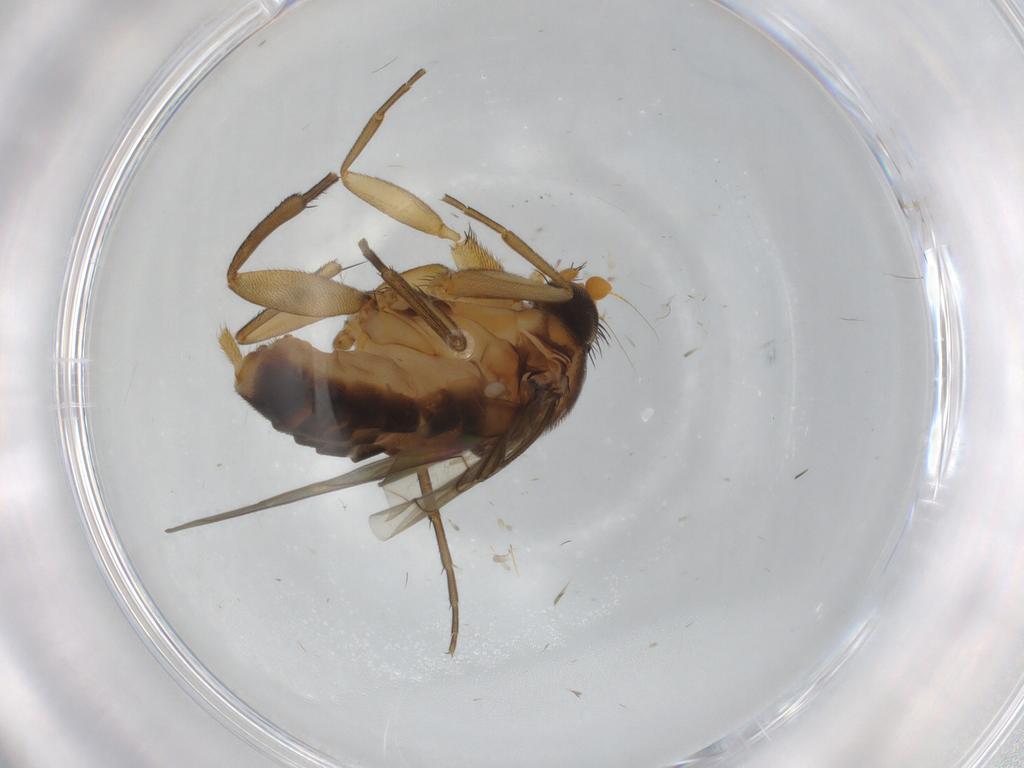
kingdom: Animalia
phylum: Arthropoda
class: Insecta
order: Diptera
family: Phoridae
